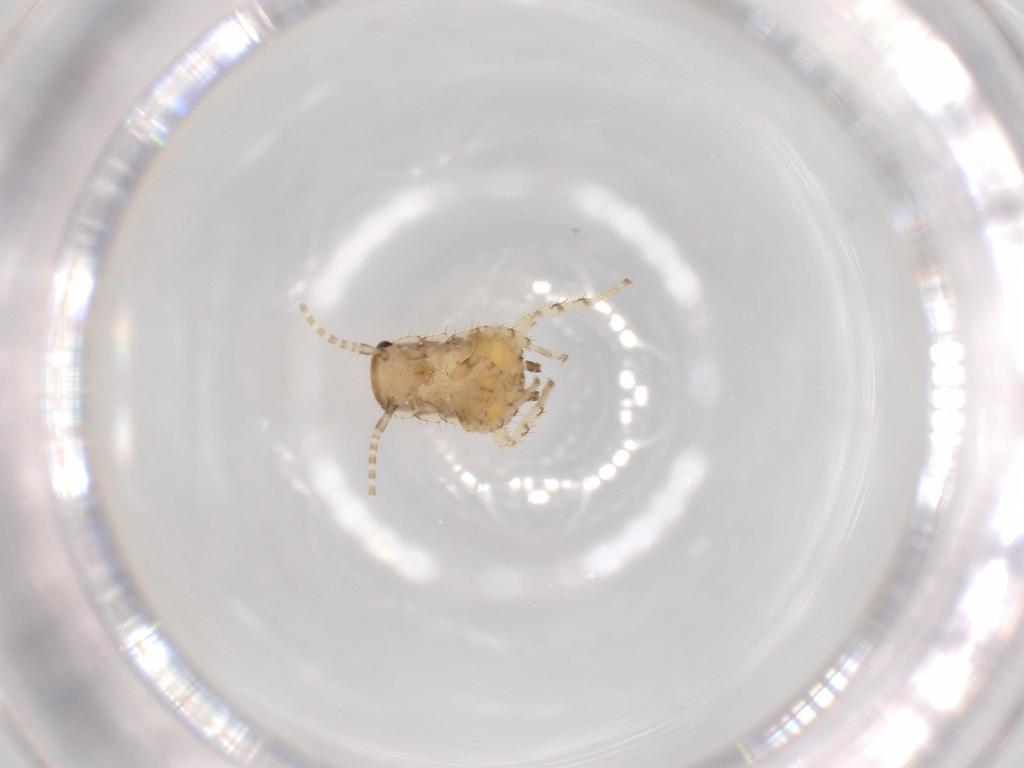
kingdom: Animalia
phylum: Arthropoda
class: Insecta
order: Blattodea
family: Ectobiidae
